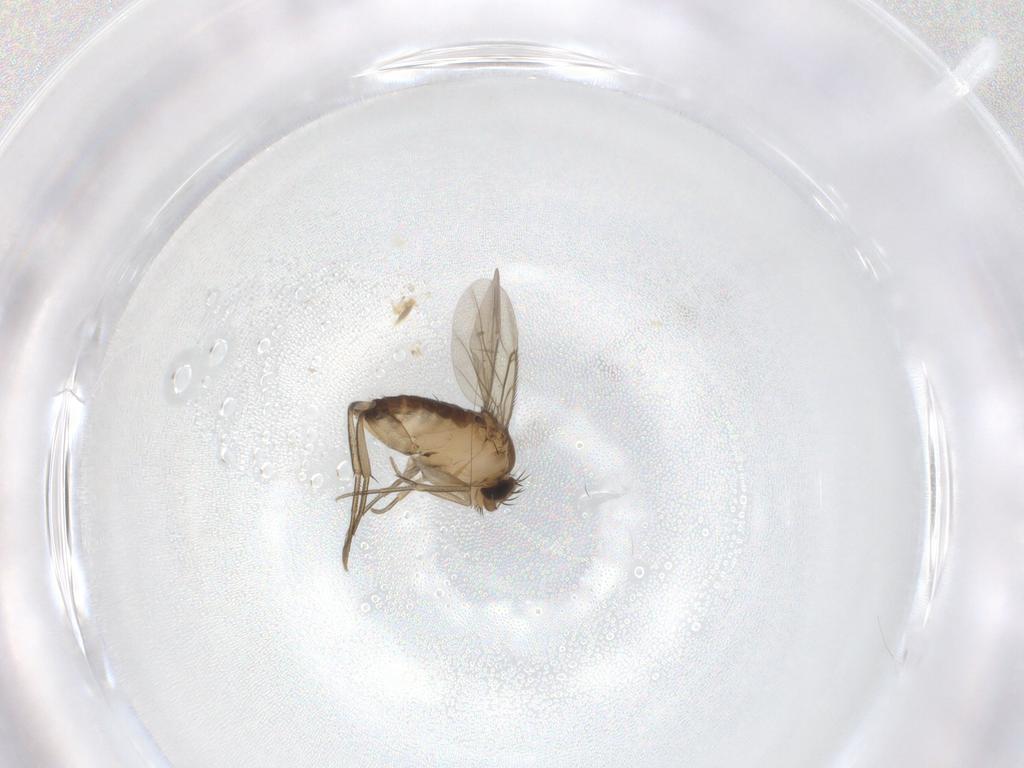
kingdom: Animalia
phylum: Arthropoda
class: Insecta
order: Diptera
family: Phoridae
